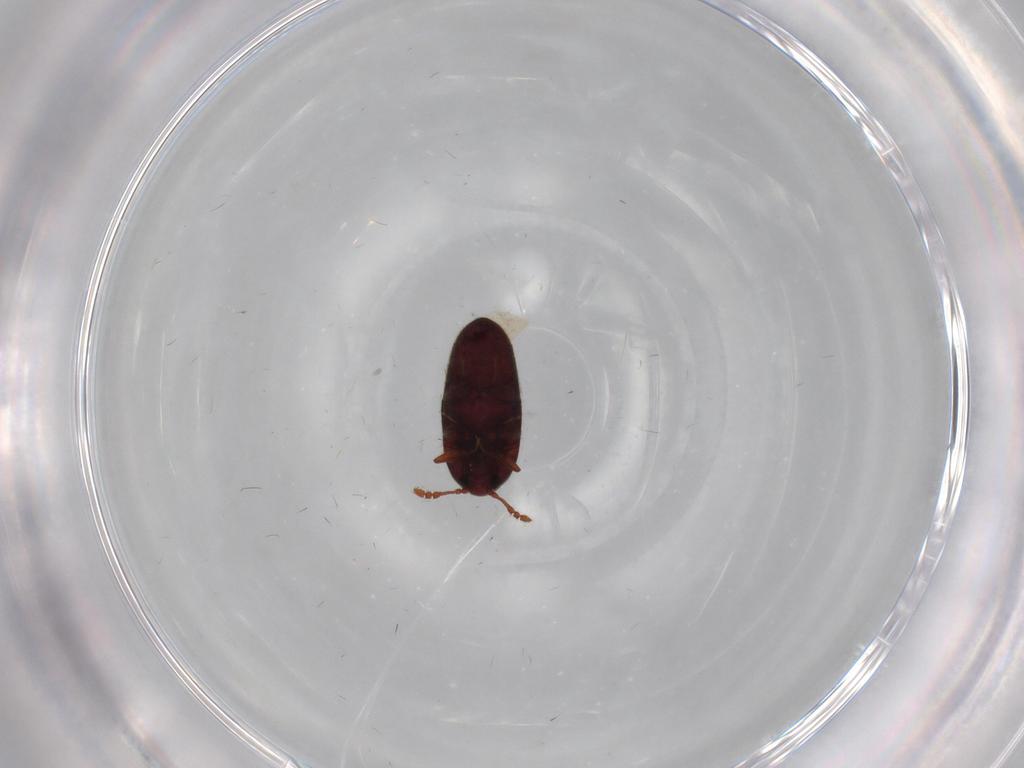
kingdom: Animalia
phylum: Arthropoda
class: Insecta
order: Coleoptera
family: Throscidae
